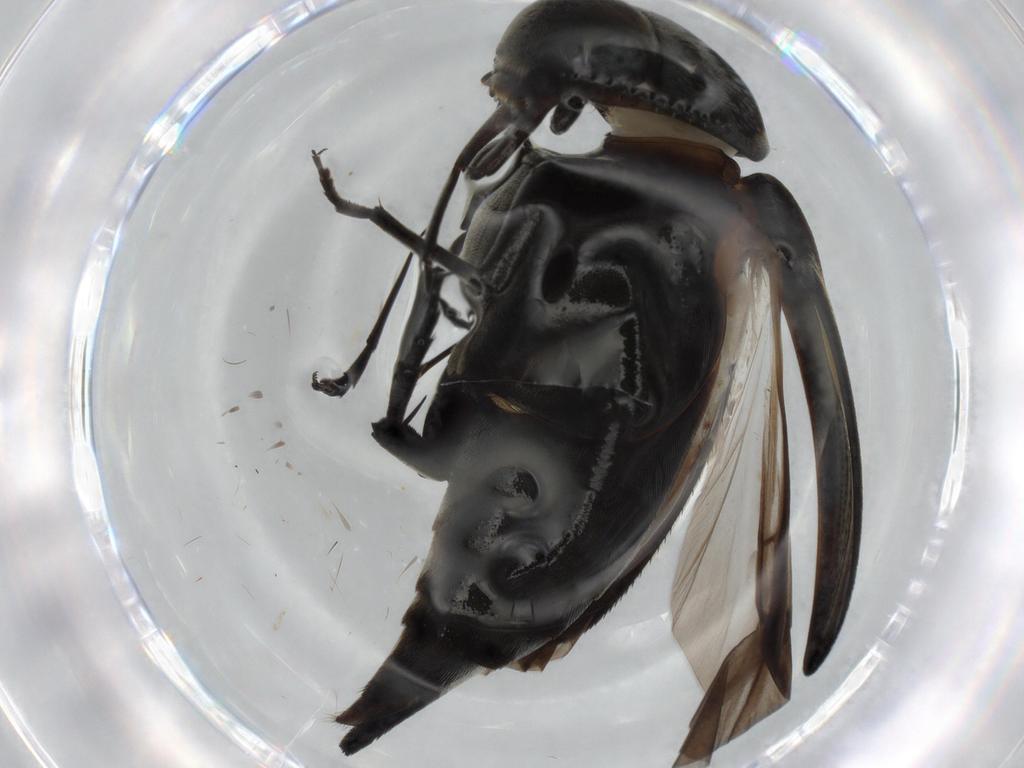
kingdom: Animalia
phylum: Arthropoda
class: Insecta
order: Coleoptera
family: Mordellidae
